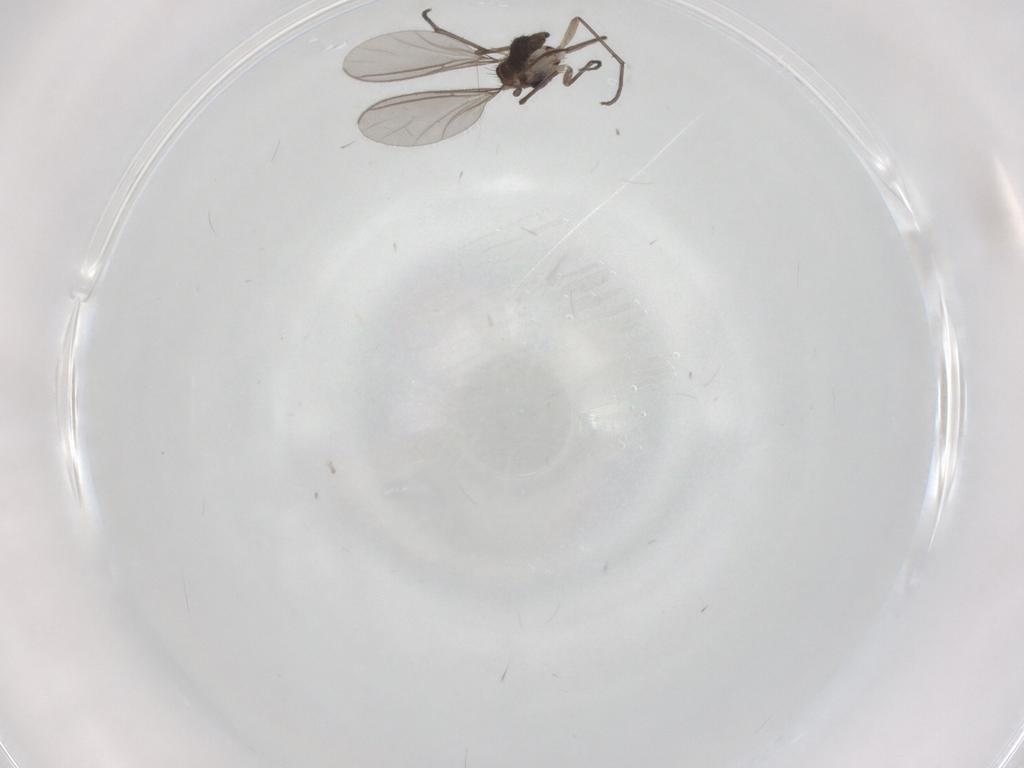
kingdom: Animalia
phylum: Arthropoda
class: Insecta
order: Diptera
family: Sciaridae
